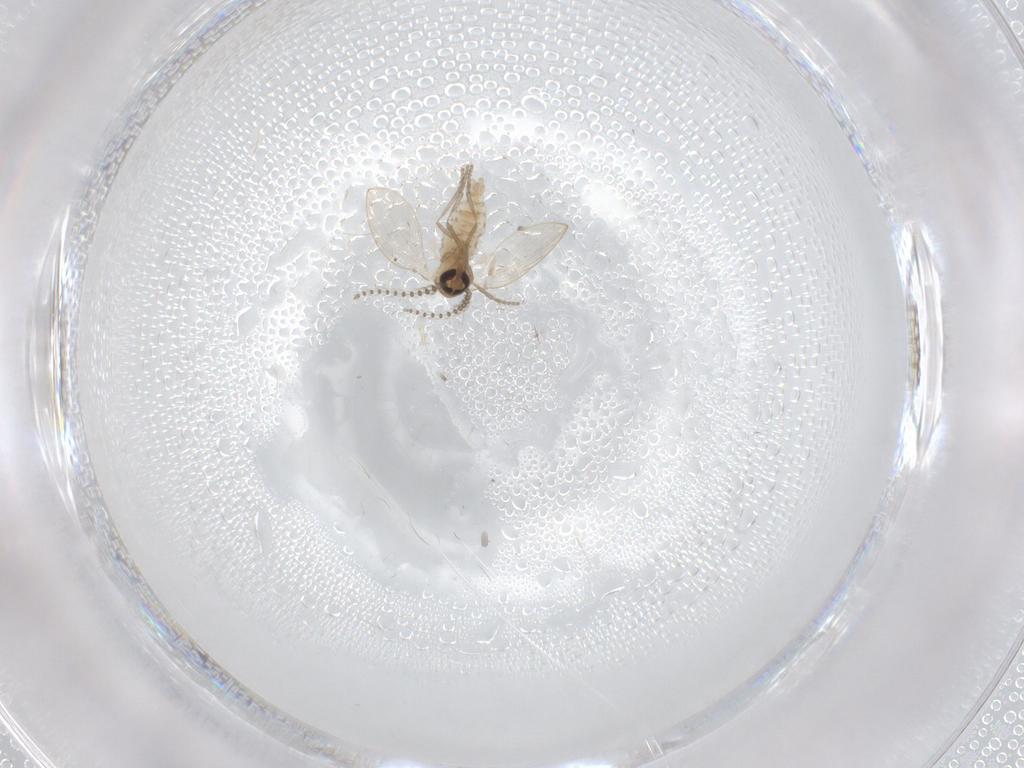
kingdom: Animalia
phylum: Arthropoda
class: Insecta
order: Diptera
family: Psychodidae
